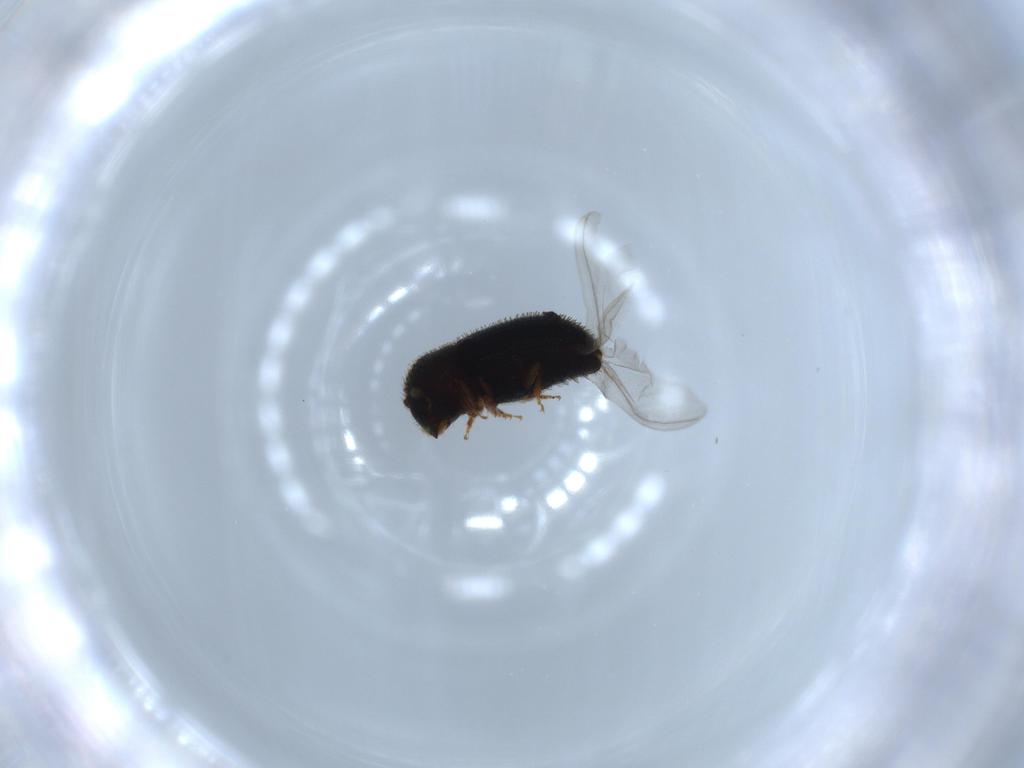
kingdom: Animalia
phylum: Arthropoda
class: Insecta
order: Coleoptera
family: Curculionidae
